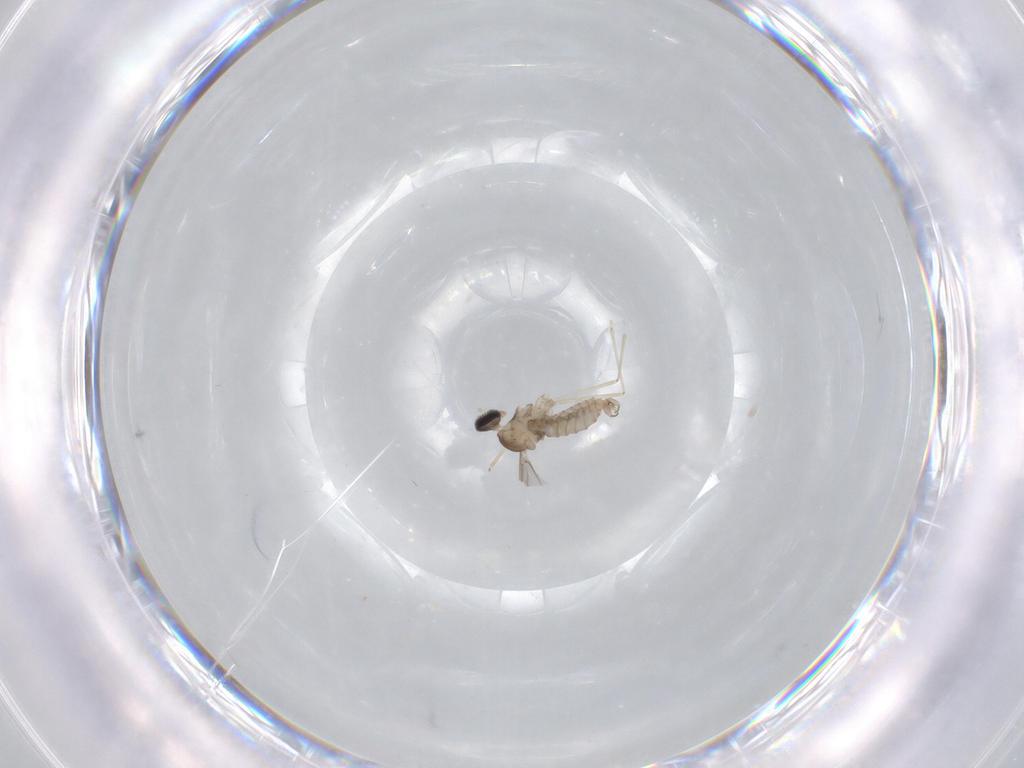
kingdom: Animalia
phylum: Arthropoda
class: Insecta
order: Diptera
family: Cecidomyiidae
